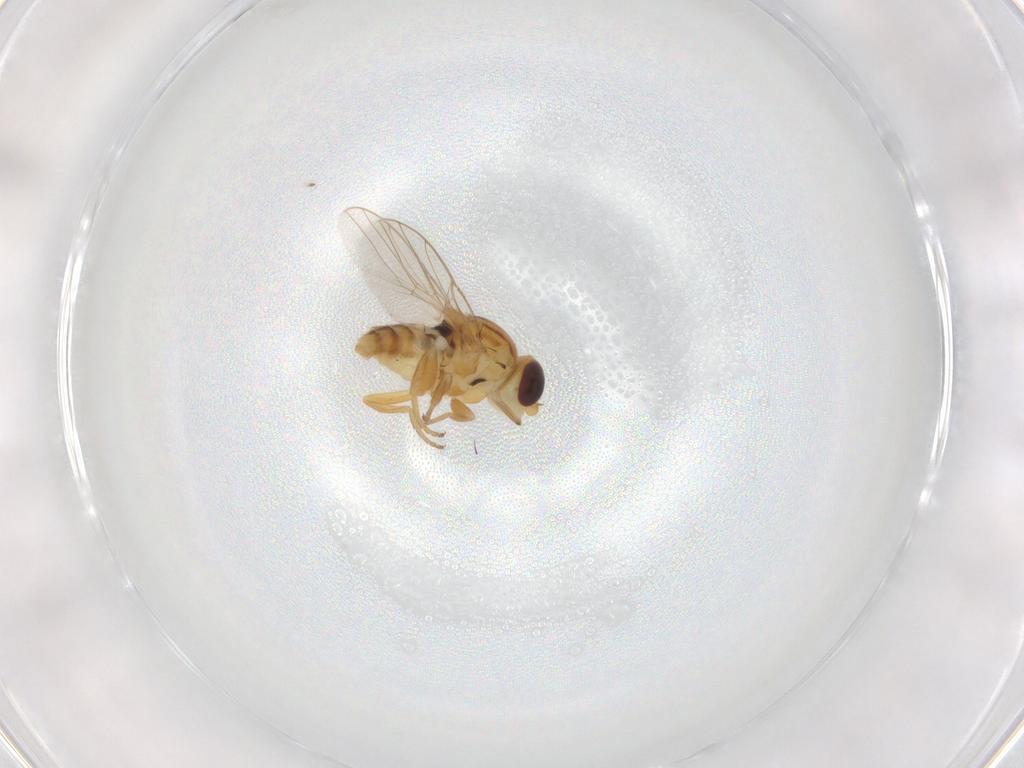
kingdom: Animalia
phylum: Arthropoda
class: Insecta
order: Diptera
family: Chloropidae
